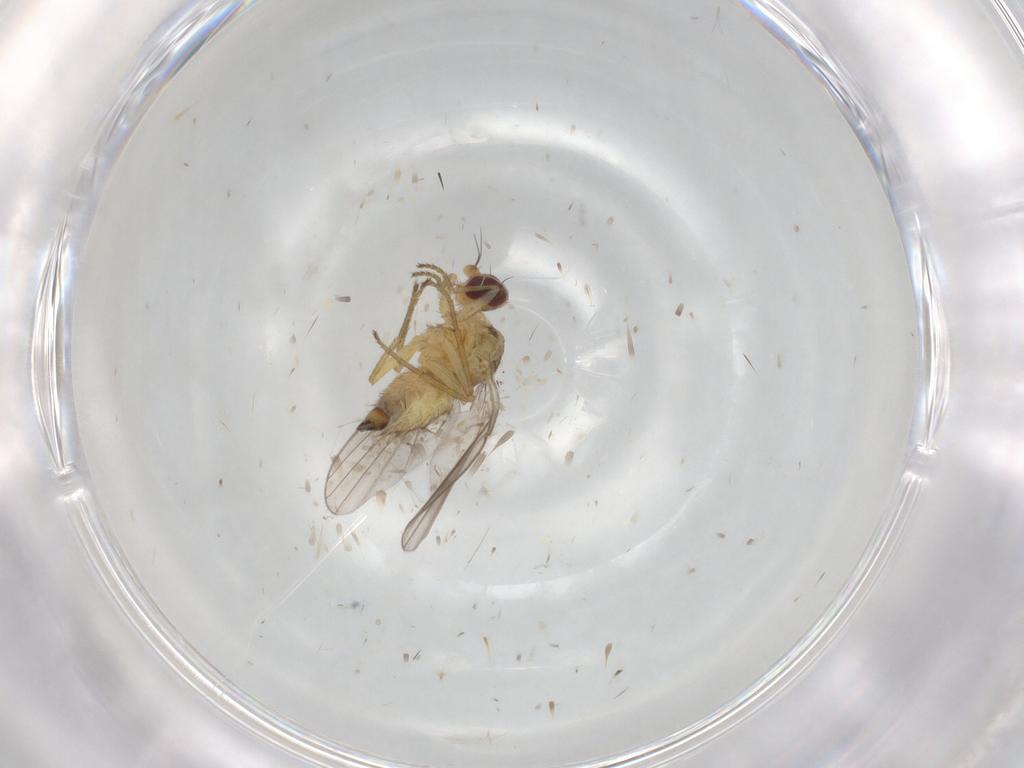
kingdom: Animalia
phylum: Arthropoda
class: Insecta
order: Diptera
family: Agromyzidae
